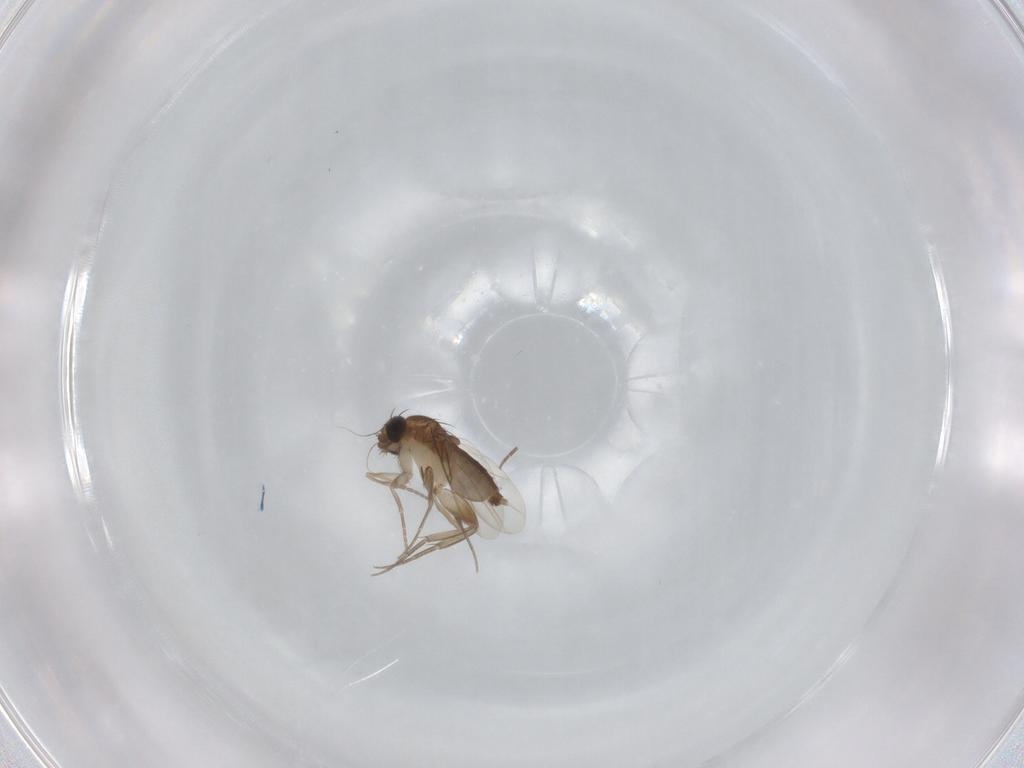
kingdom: Animalia
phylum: Arthropoda
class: Insecta
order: Diptera
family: Phoridae
